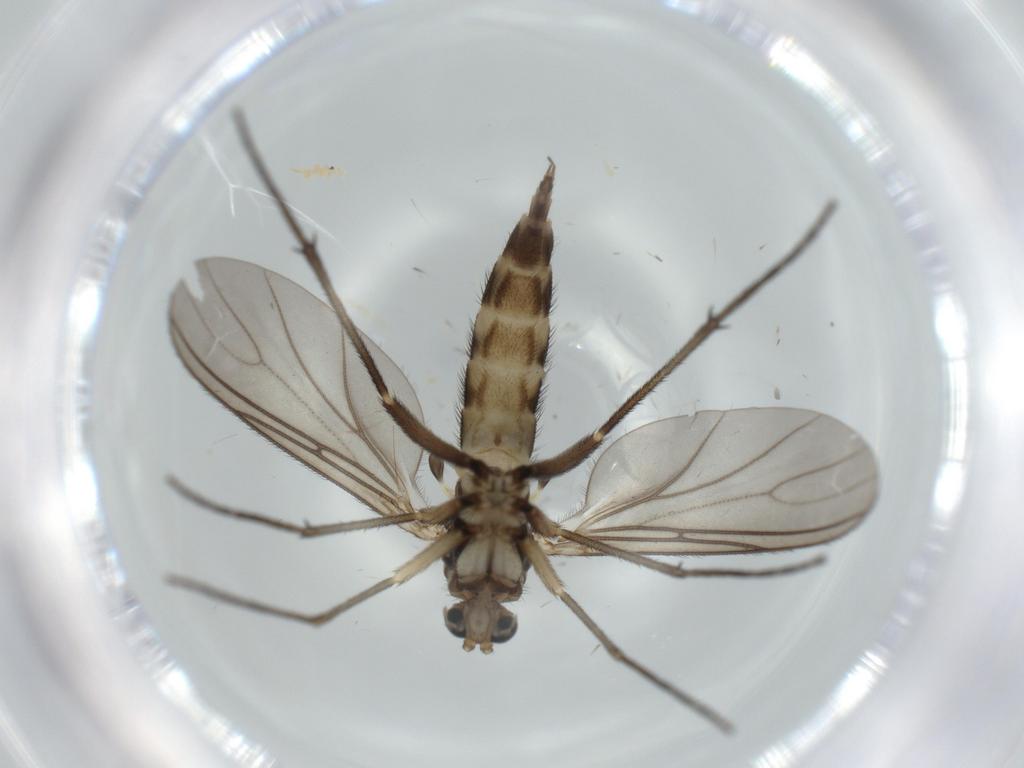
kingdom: Animalia
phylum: Arthropoda
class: Insecta
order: Diptera
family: Sciaridae
